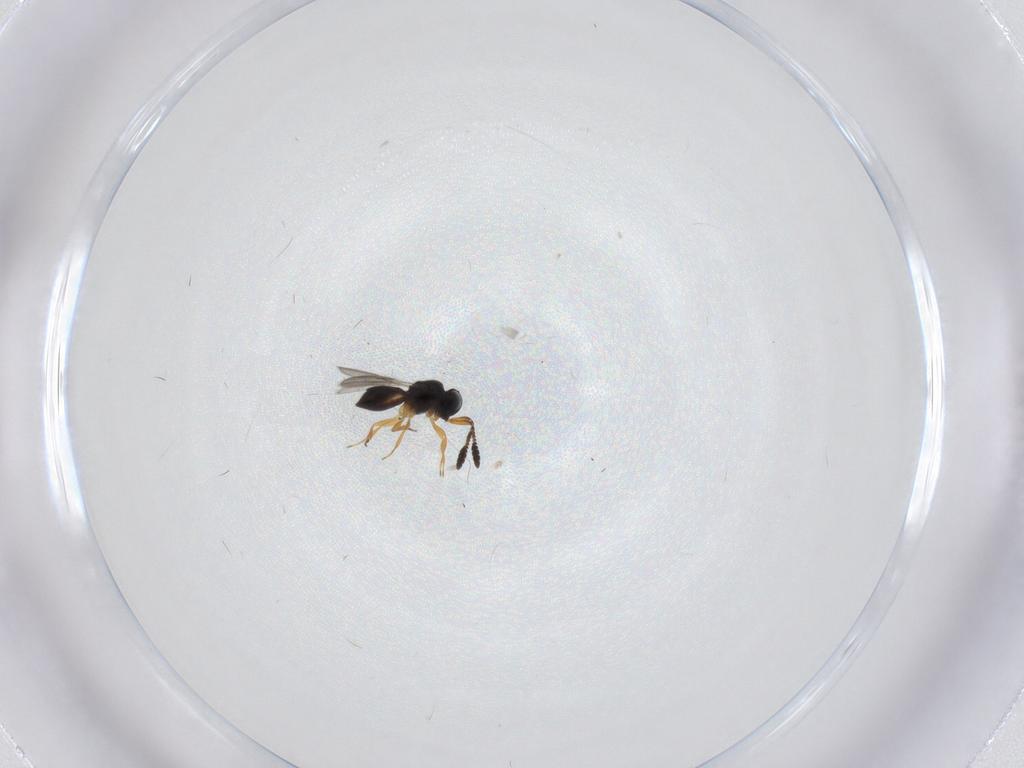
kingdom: Animalia
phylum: Arthropoda
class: Insecta
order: Hymenoptera
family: Scelionidae
